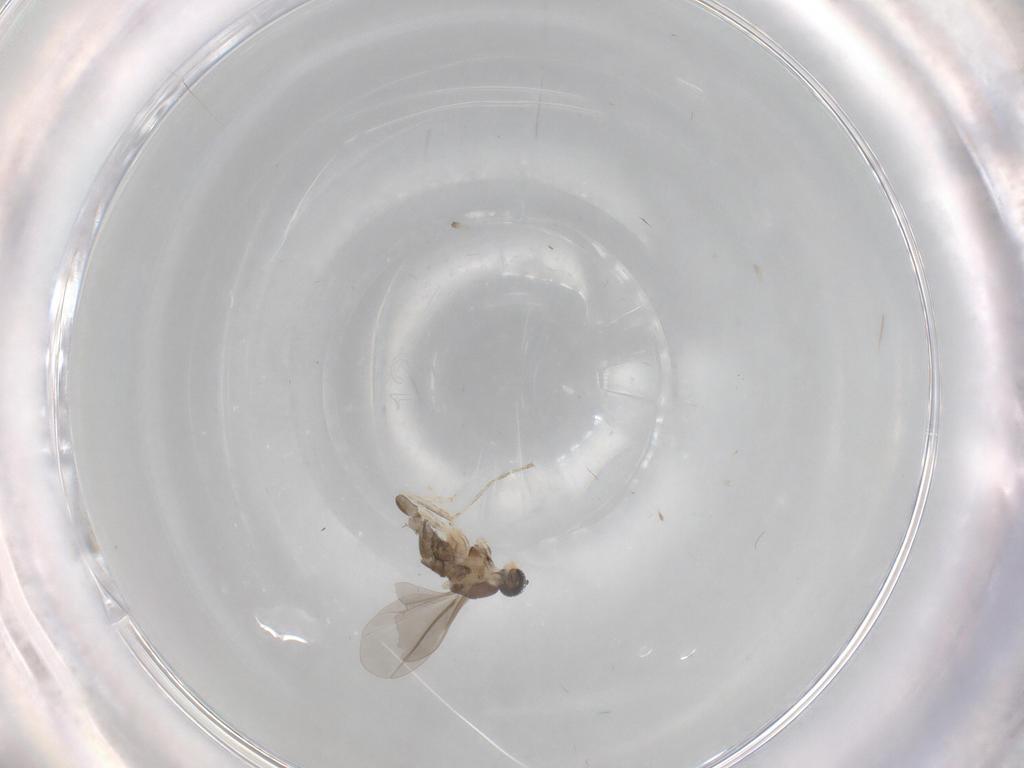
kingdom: Animalia
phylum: Arthropoda
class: Insecta
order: Diptera
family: Cecidomyiidae
